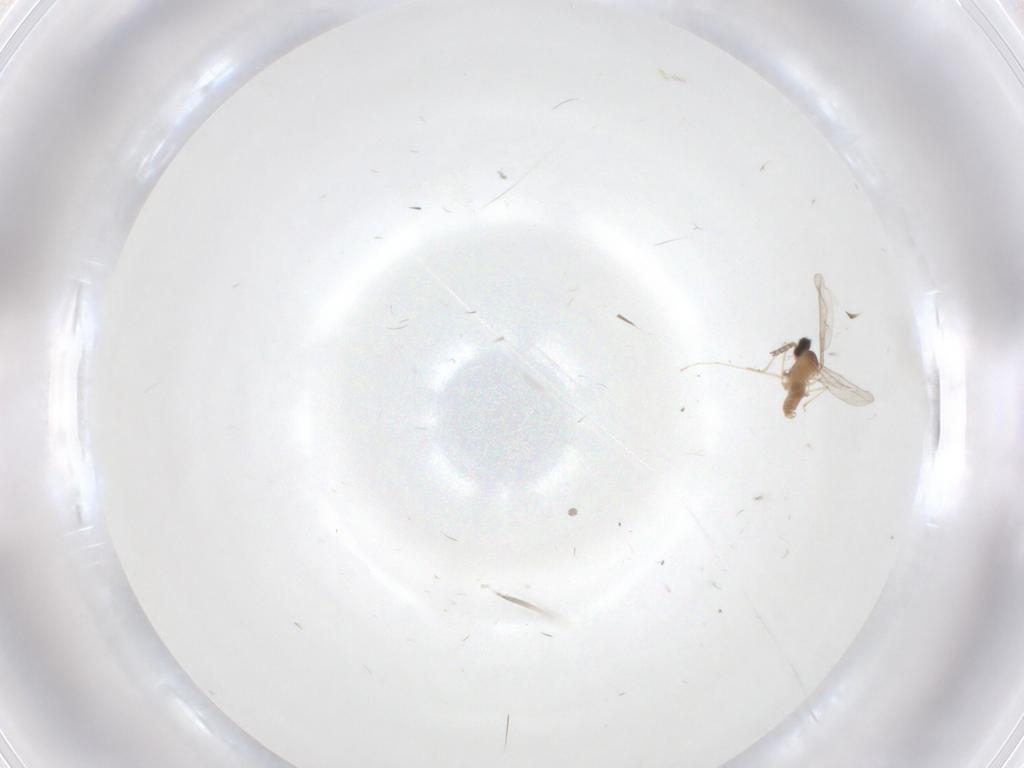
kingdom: Animalia
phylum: Arthropoda
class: Insecta
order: Diptera
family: Cecidomyiidae
